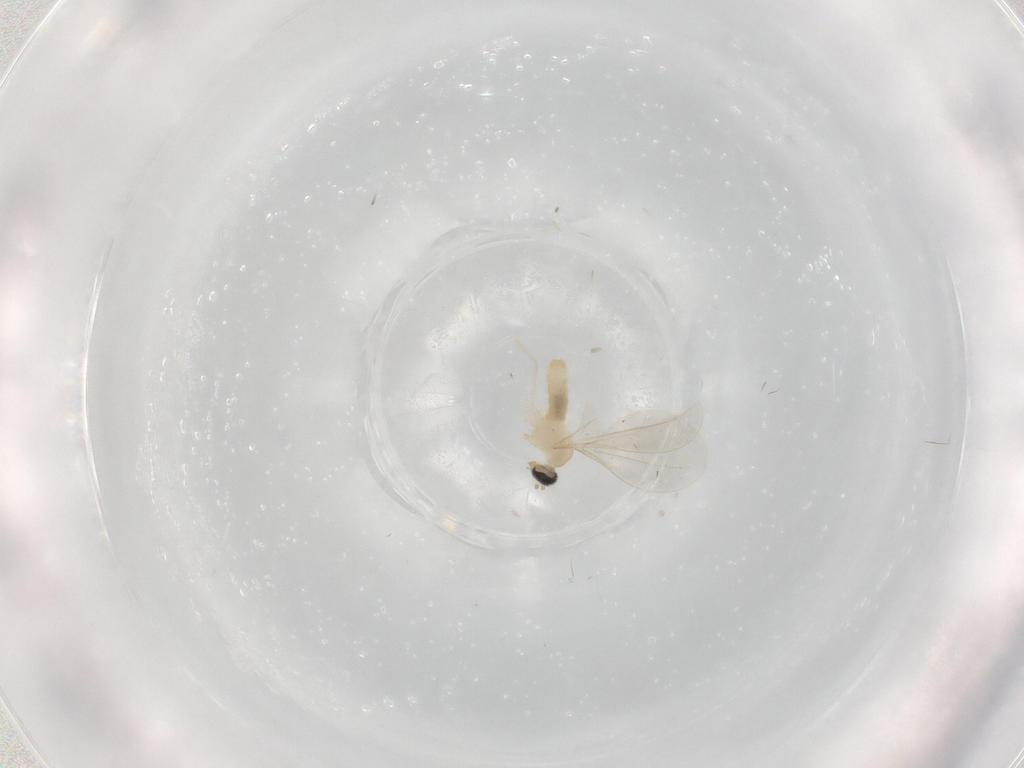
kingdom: Animalia
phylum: Arthropoda
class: Insecta
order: Diptera
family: Cecidomyiidae
